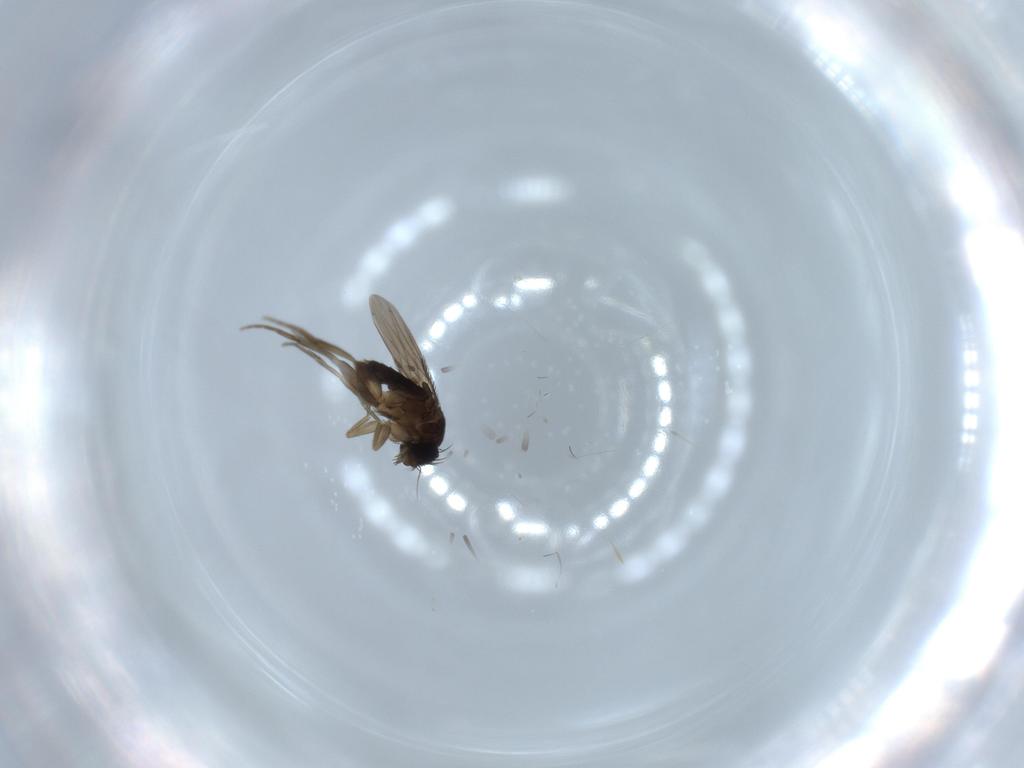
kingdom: Animalia
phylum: Arthropoda
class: Insecta
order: Diptera
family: Phoridae
